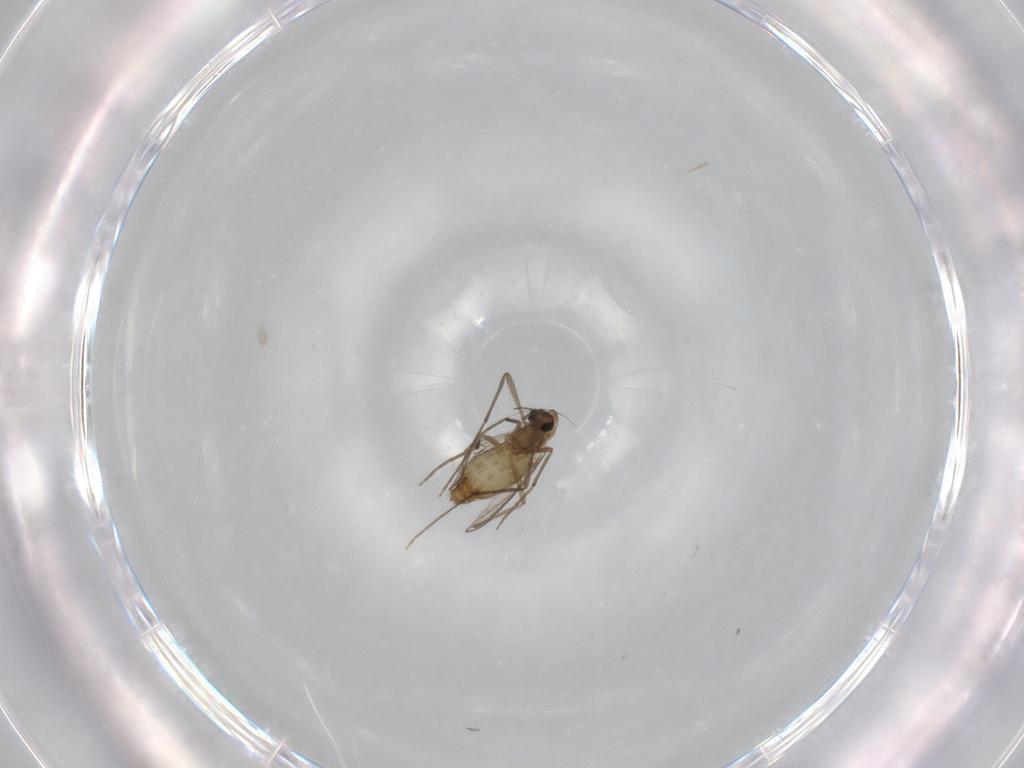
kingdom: Animalia
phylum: Arthropoda
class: Insecta
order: Diptera
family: Chironomidae
